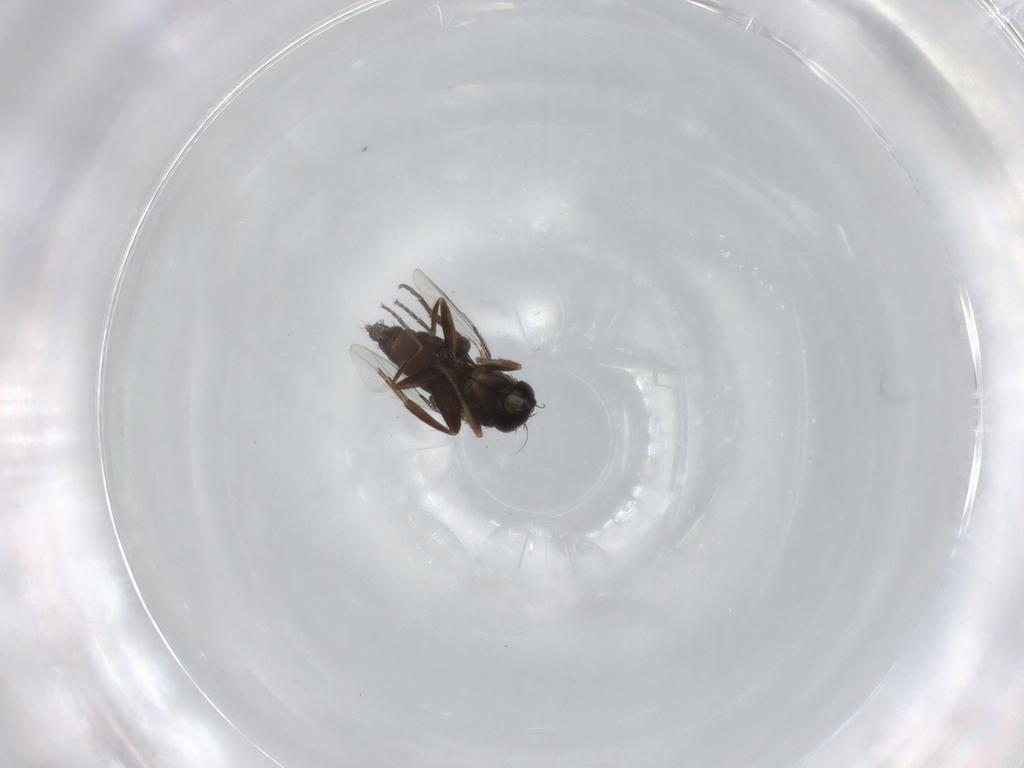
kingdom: Animalia
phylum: Arthropoda
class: Insecta
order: Diptera
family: Phoridae
